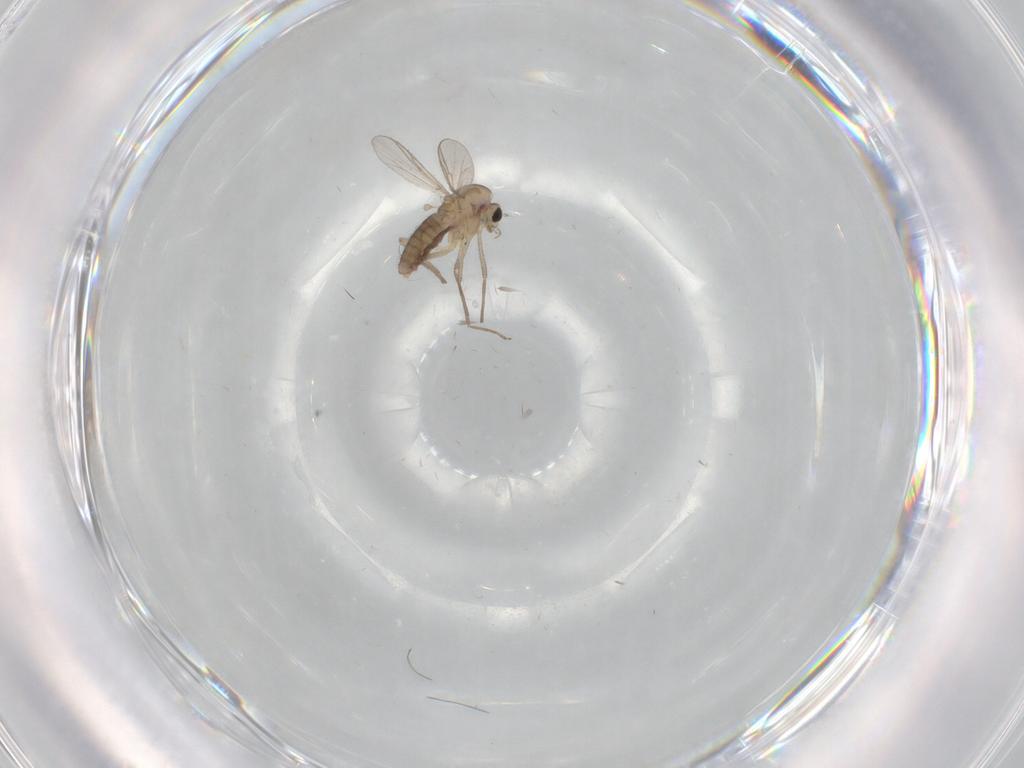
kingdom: Animalia
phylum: Arthropoda
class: Insecta
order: Diptera
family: Chironomidae
